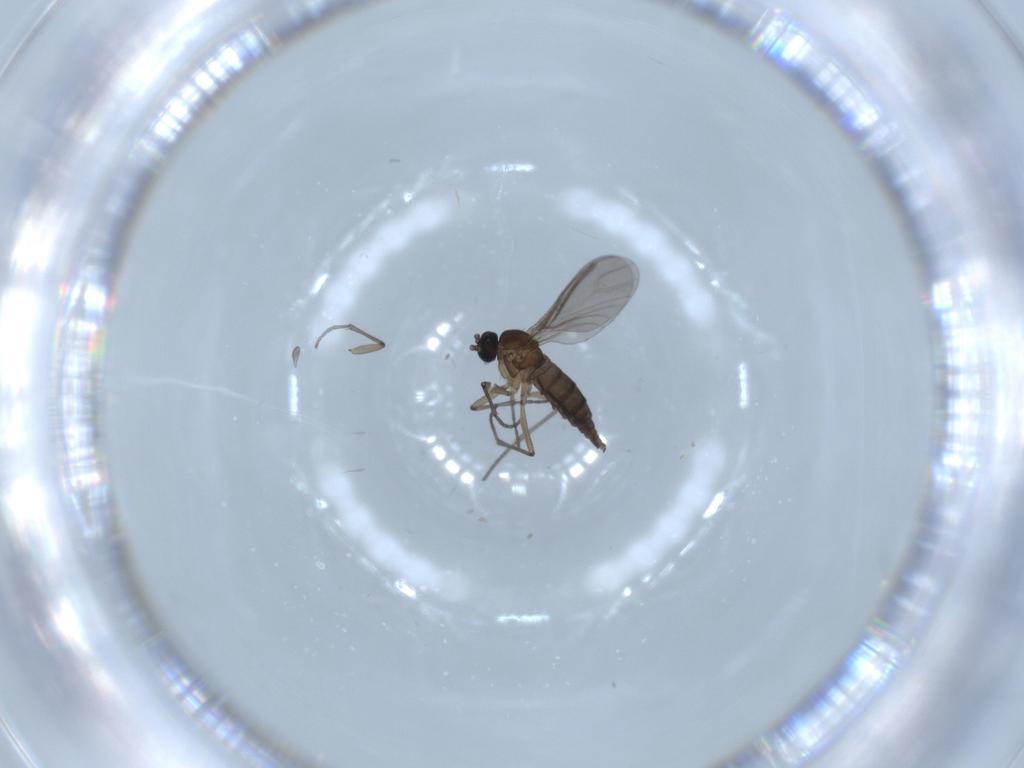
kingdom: Animalia
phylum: Arthropoda
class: Insecta
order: Diptera
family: Sciaridae
